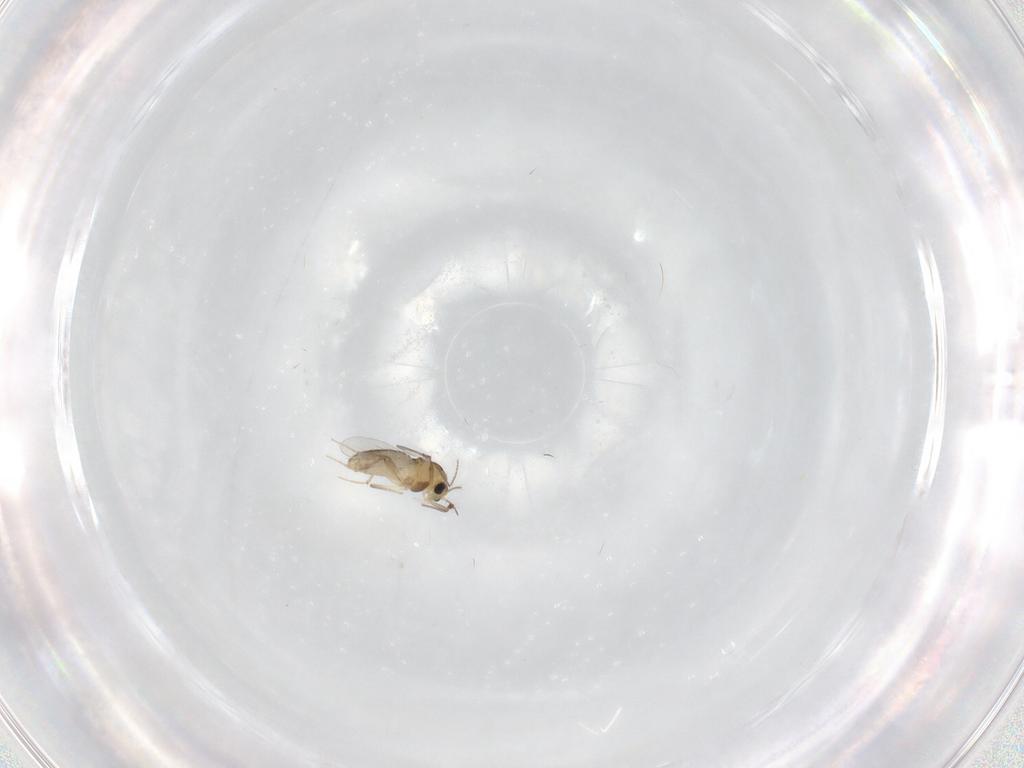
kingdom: Animalia
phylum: Arthropoda
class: Insecta
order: Diptera
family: Chironomidae
